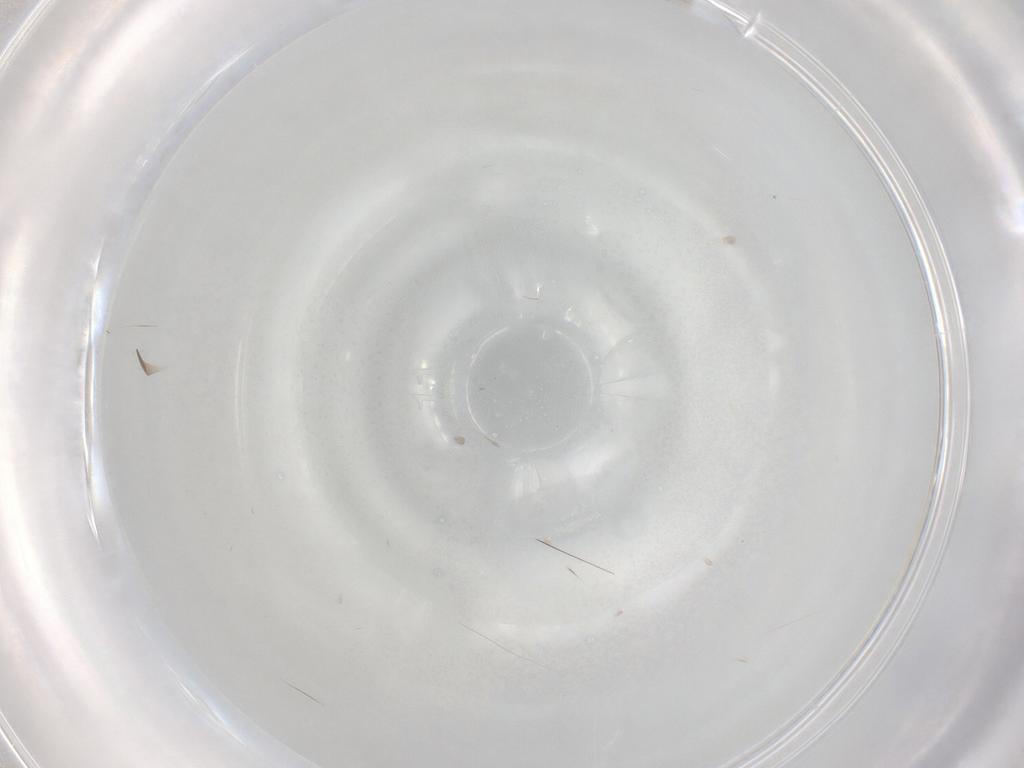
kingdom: Animalia
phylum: Arthropoda
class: Insecta
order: Hymenoptera
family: Mymaridae
